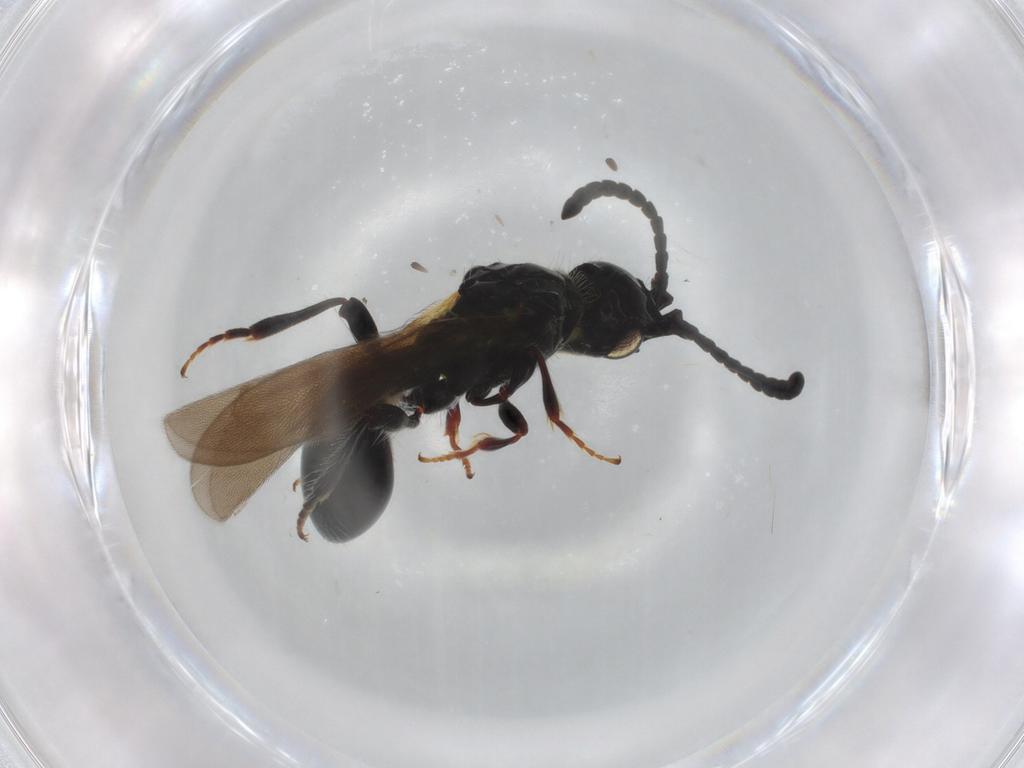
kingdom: Animalia
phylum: Arthropoda
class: Insecta
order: Hymenoptera
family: Diapriidae
